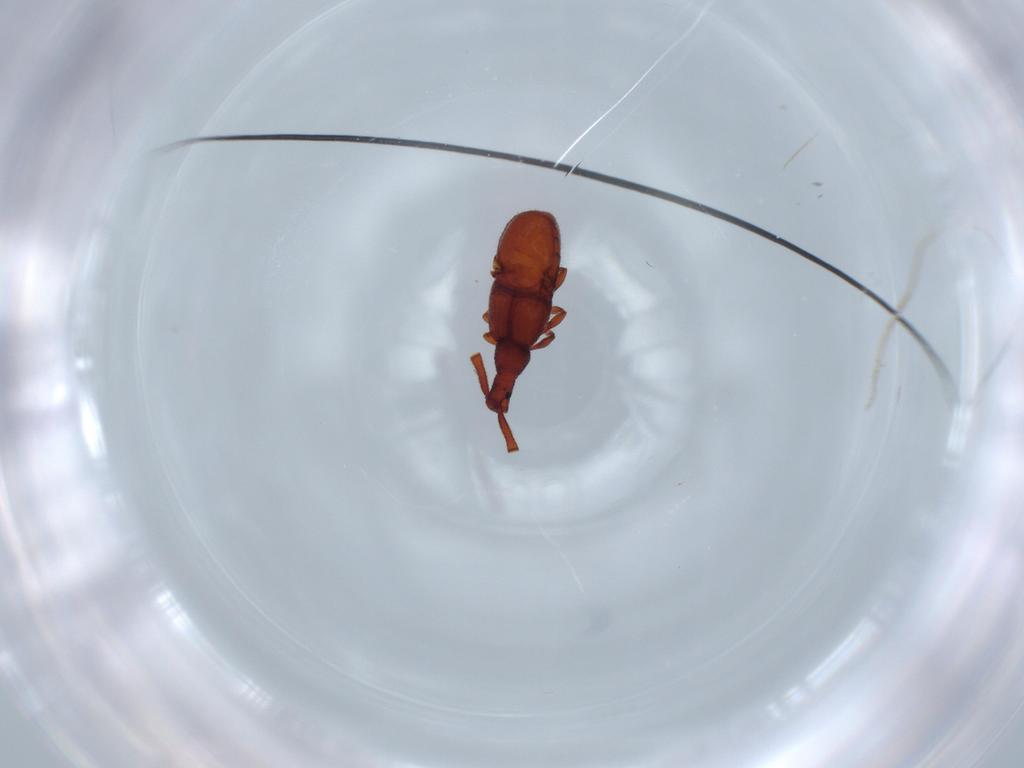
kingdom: Animalia
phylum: Arthropoda
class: Insecta
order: Coleoptera
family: Staphylinidae
